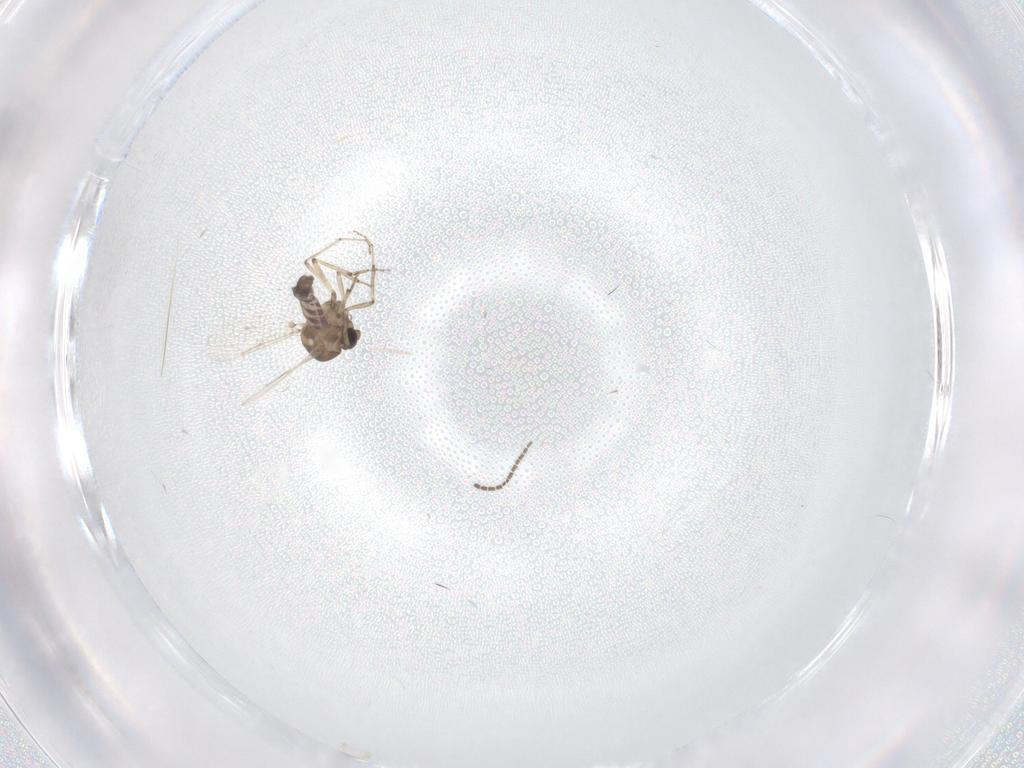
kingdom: Animalia
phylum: Arthropoda
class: Insecta
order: Diptera
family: Ceratopogonidae
